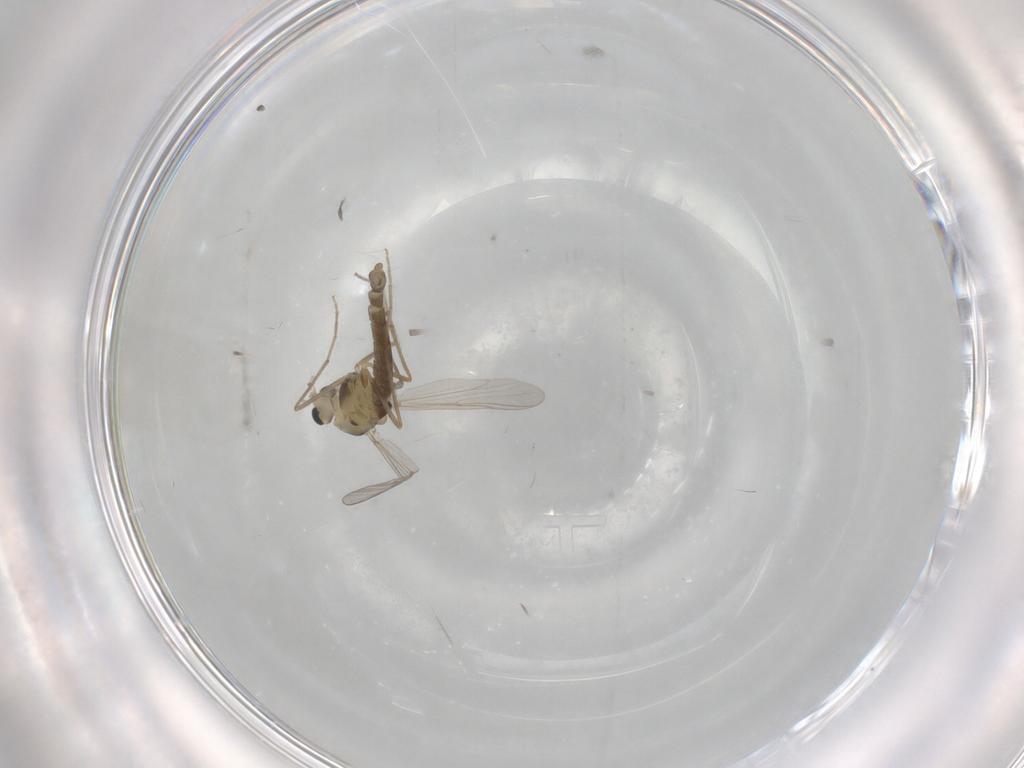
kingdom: Animalia
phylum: Arthropoda
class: Insecta
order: Diptera
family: Chironomidae
